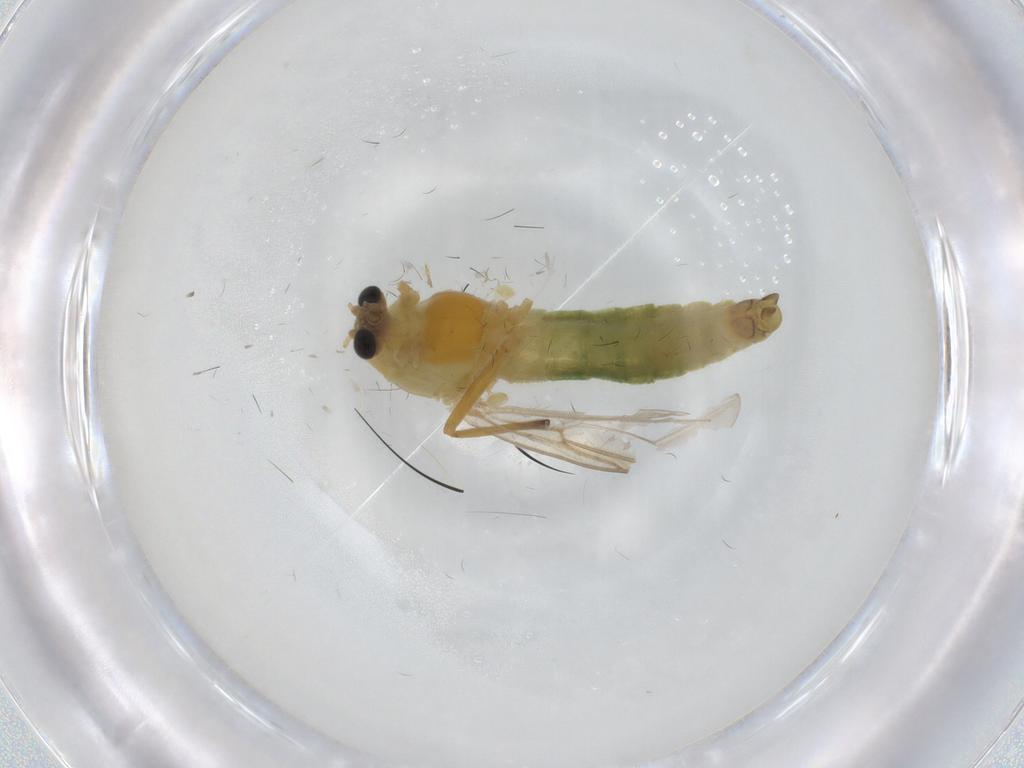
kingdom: Animalia
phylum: Arthropoda
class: Insecta
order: Diptera
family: Chironomidae
